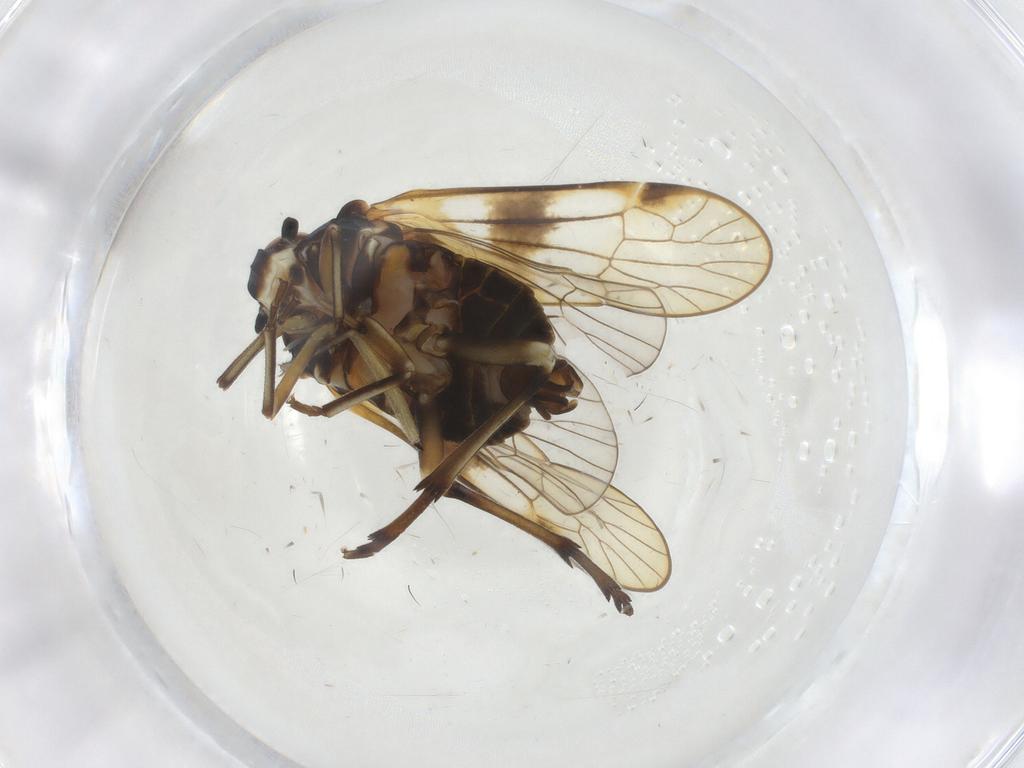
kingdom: Animalia
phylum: Arthropoda
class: Insecta
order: Hemiptera
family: Kinnaridae
